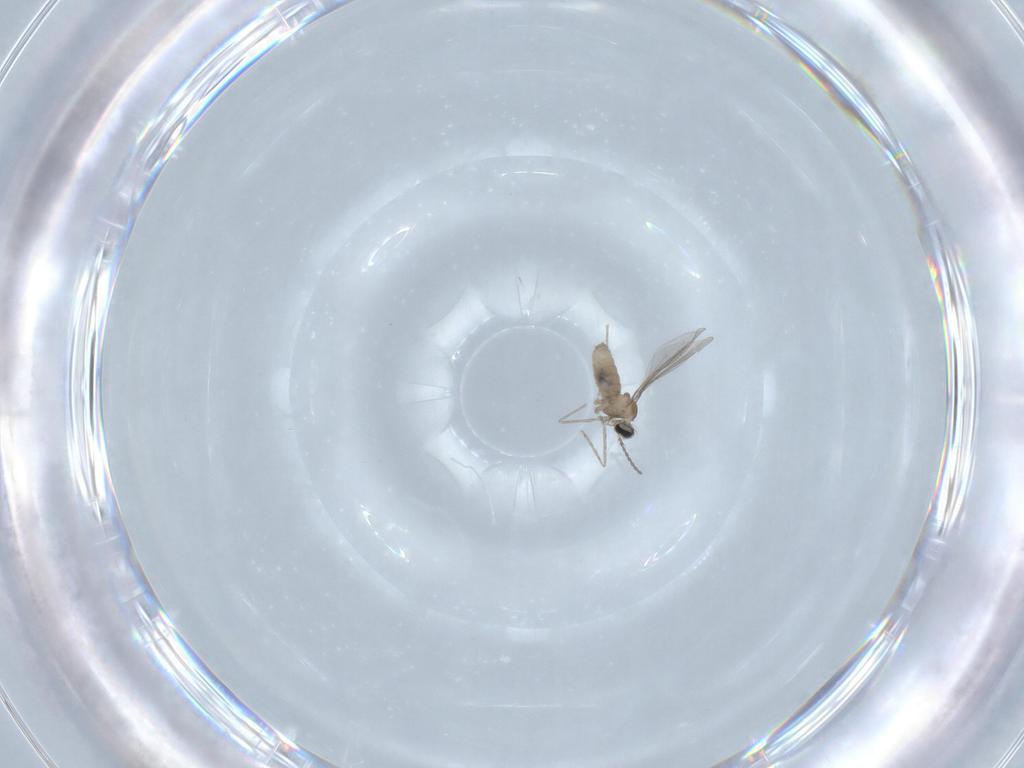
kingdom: Animalia
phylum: Arthropoda
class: Insecta
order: Diptera
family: Cecidomyiidae
